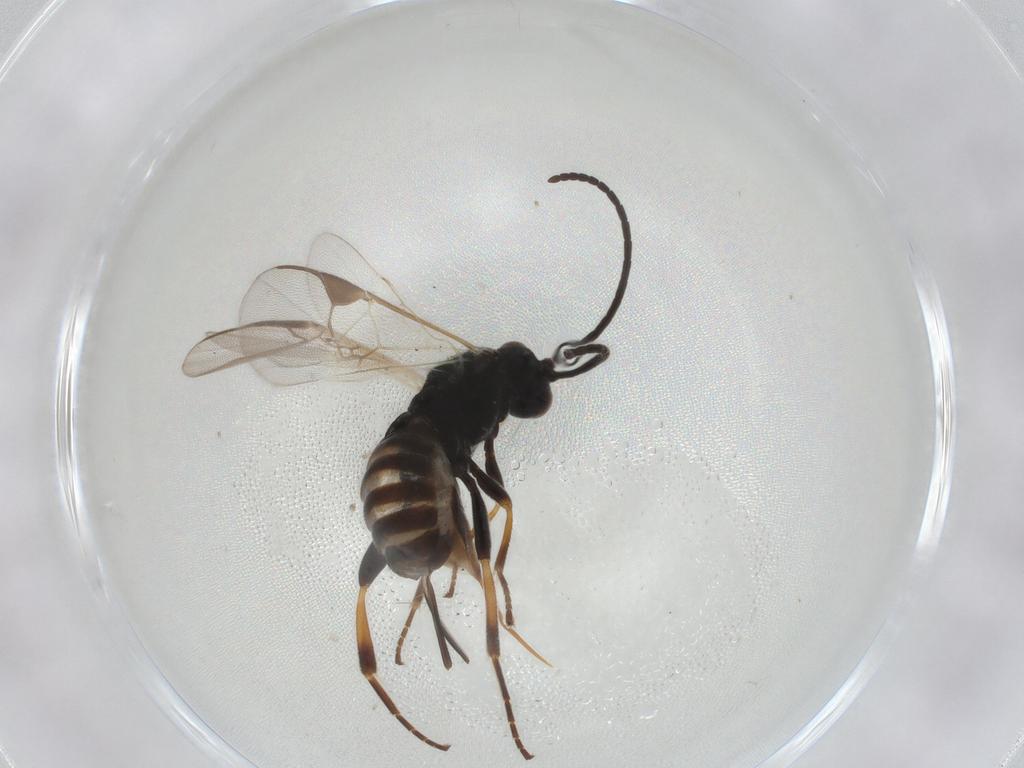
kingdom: Animalia
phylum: Arthropoda
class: Insecta
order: Hymenoptera
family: Braconidae
